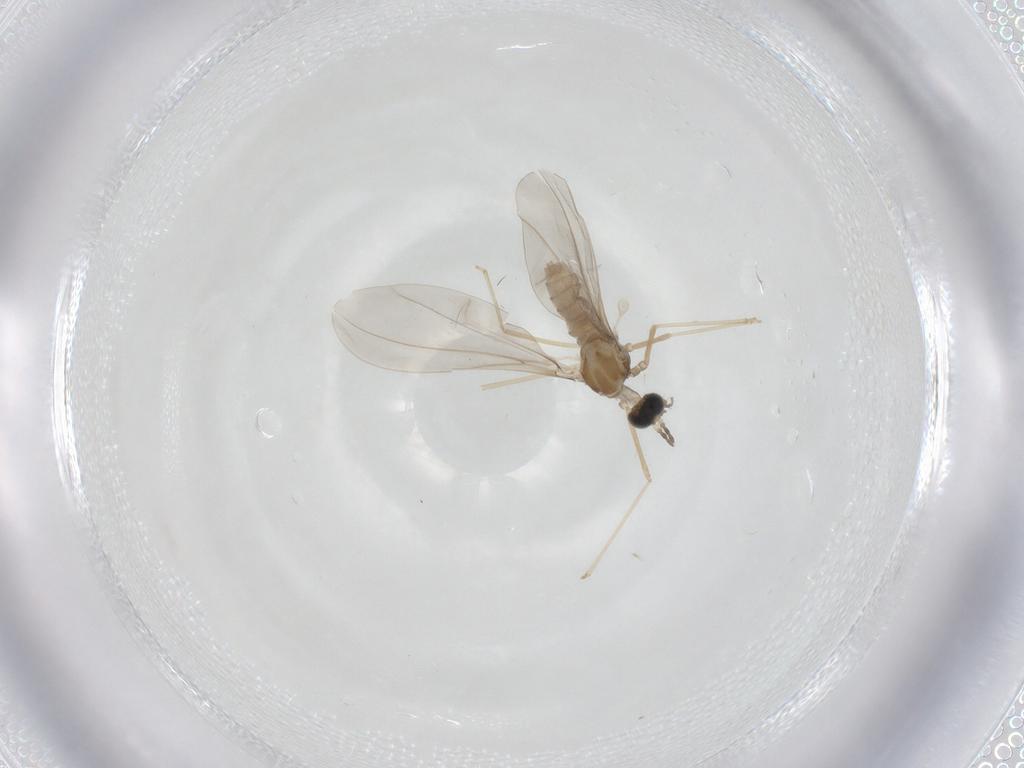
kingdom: Animalia
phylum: Arthropoda
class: Insecta
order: Diptera
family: Cecidomyiidae
